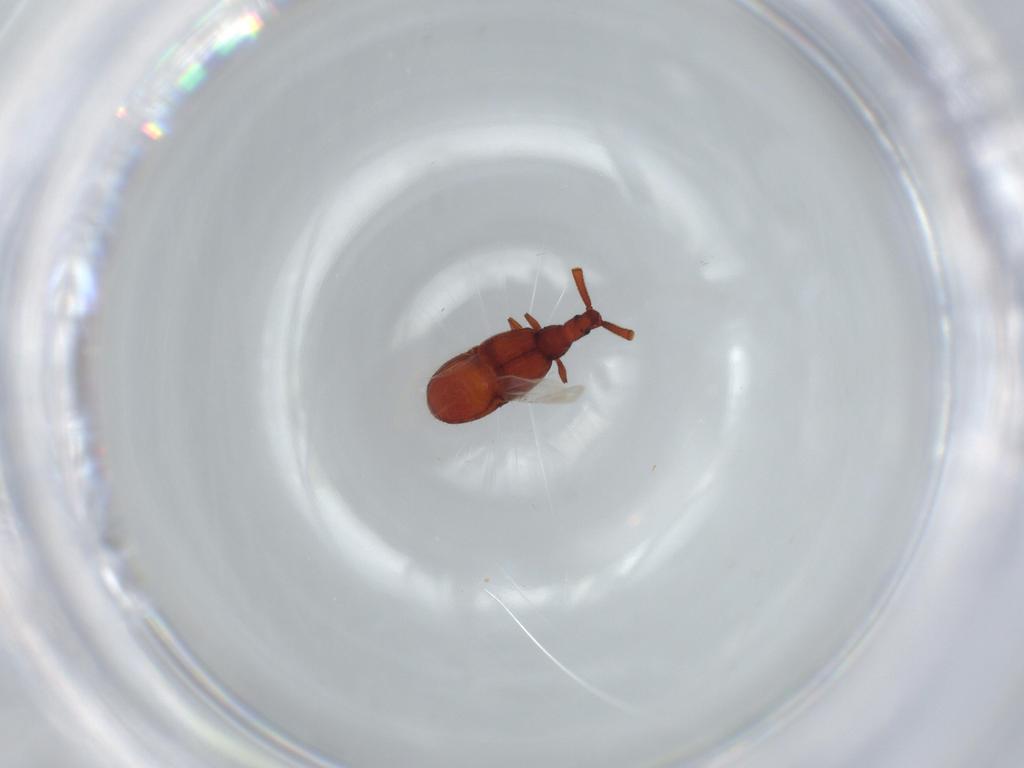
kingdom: Animalia
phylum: Arthropoda
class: Insecta
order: Coleoptera
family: Staphylinidae
